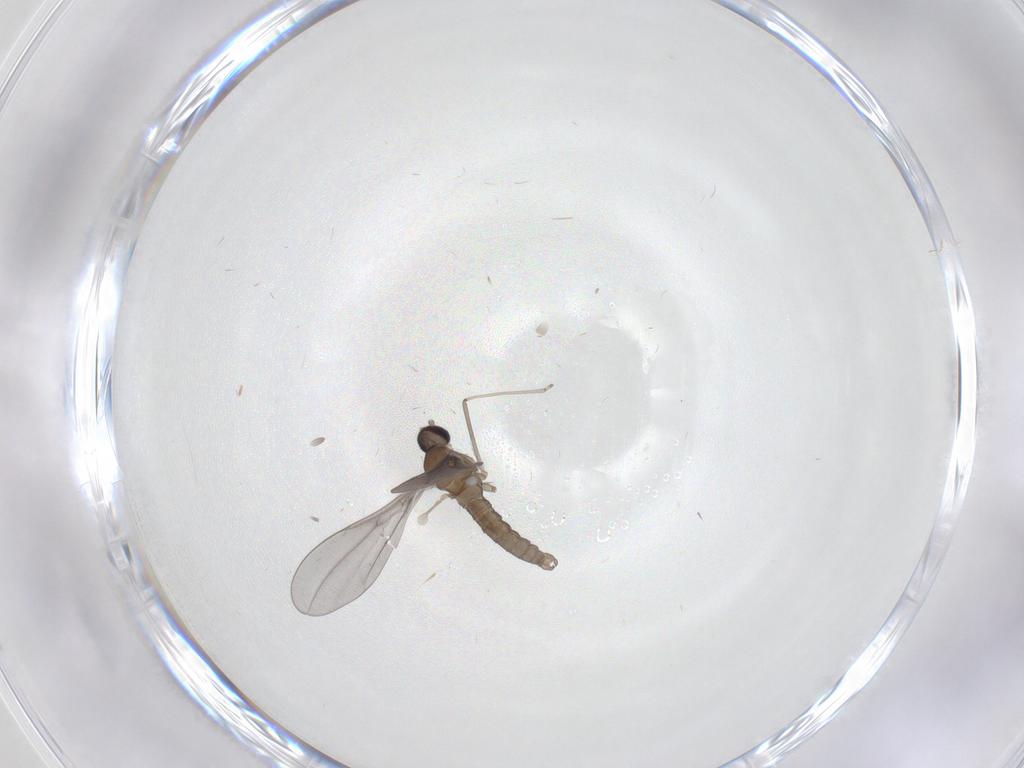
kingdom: Animalia
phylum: Arthropoda
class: Insecta
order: Diptera
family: Cecidomyiidae
